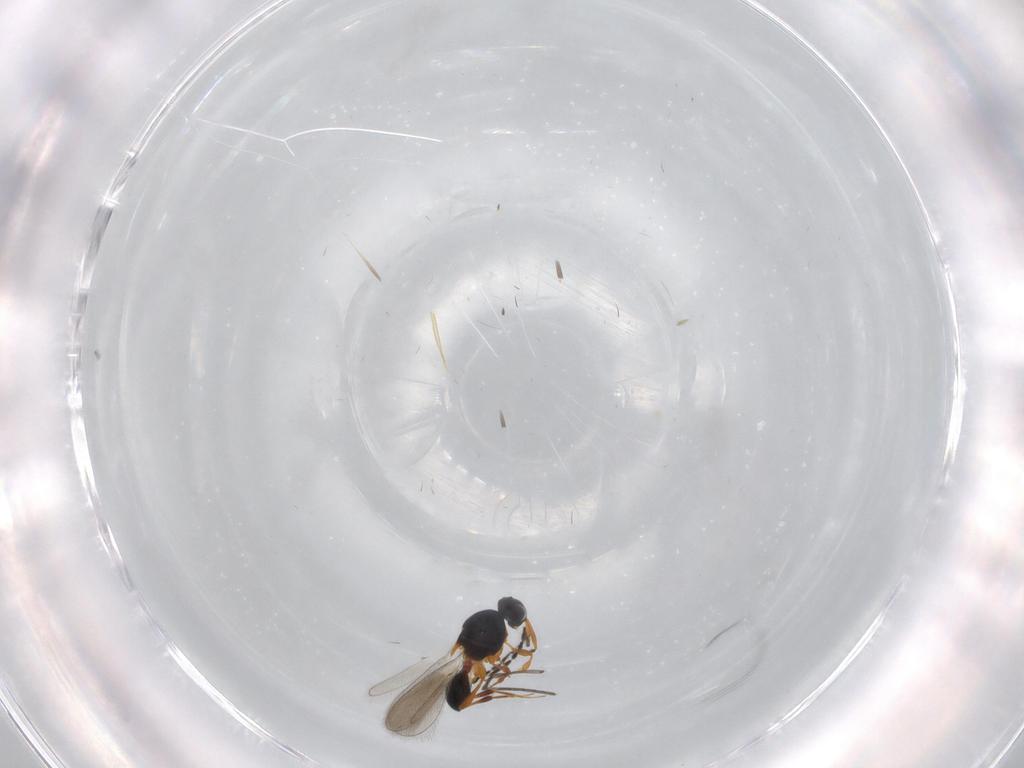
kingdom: Animalia
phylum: Arthropoda
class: Insecta
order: Hymenoptera
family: Platygastridae
